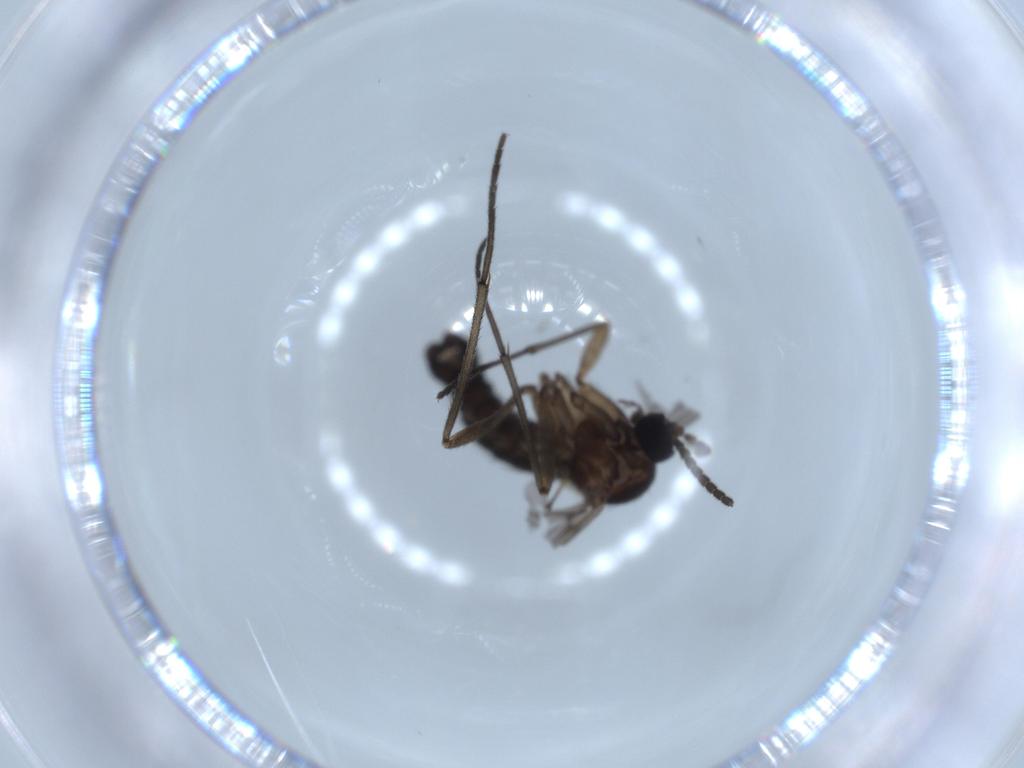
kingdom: Animalia
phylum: Arthropoda
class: Insecta
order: Diptera
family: Sciaridae
